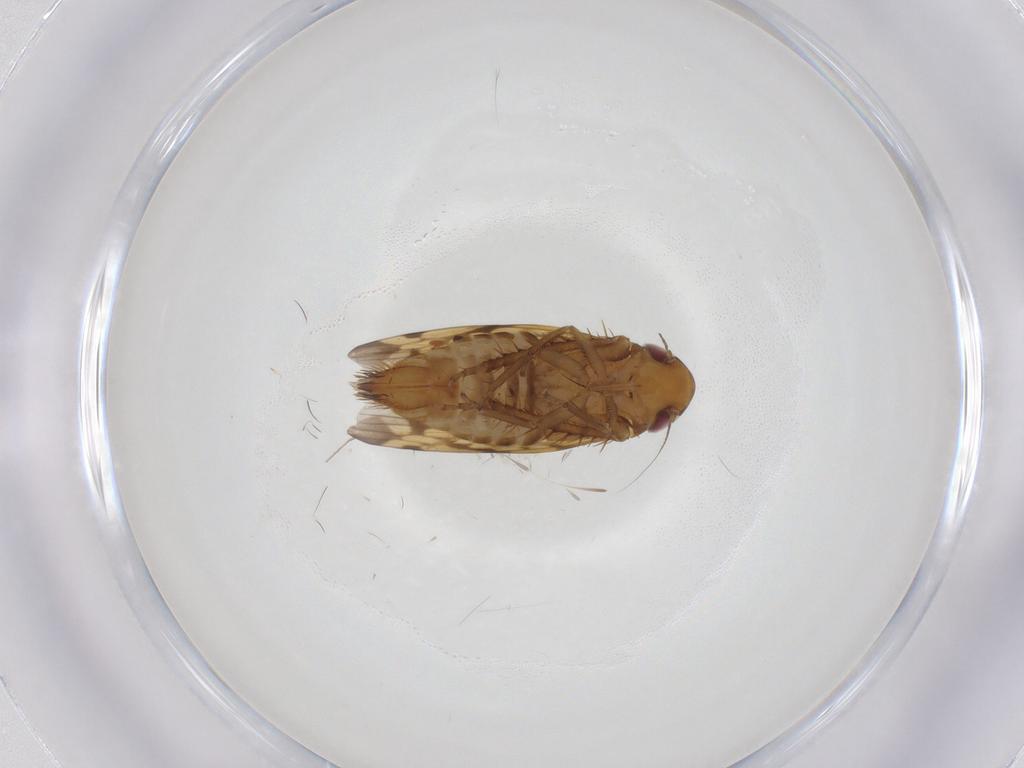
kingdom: Animalia
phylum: Arthropoda
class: Insecta
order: Hemiptera
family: Cicadellidae
